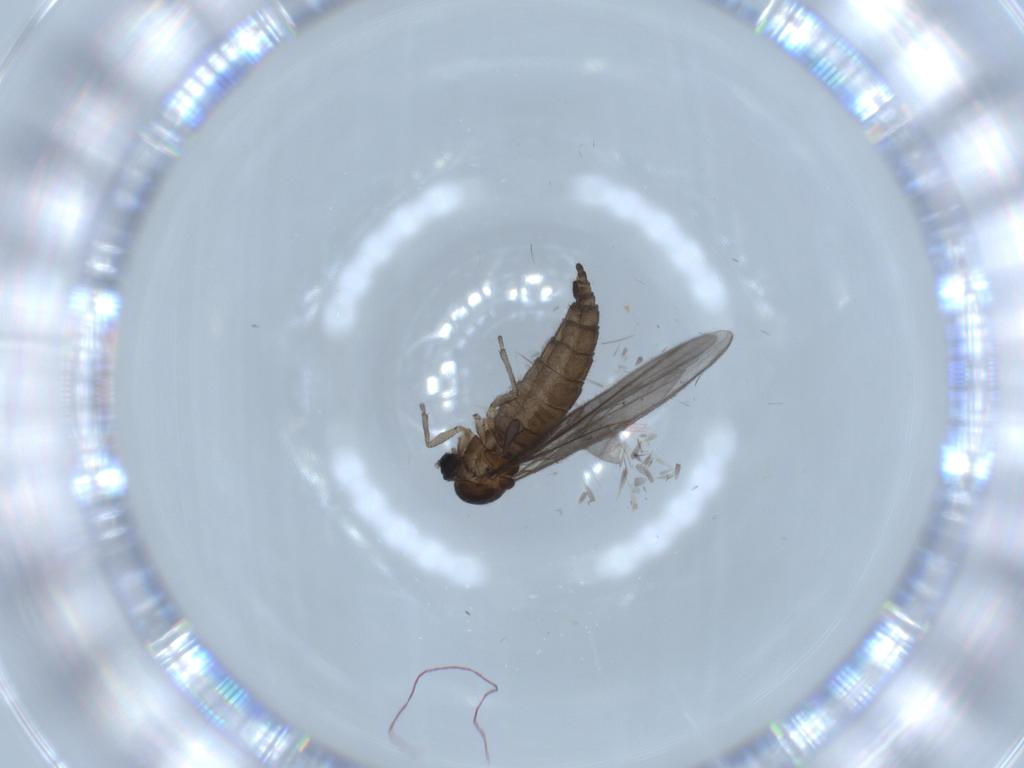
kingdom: Animalia
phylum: Arthropoda
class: Insecta
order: Diptera
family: Sciaridae
